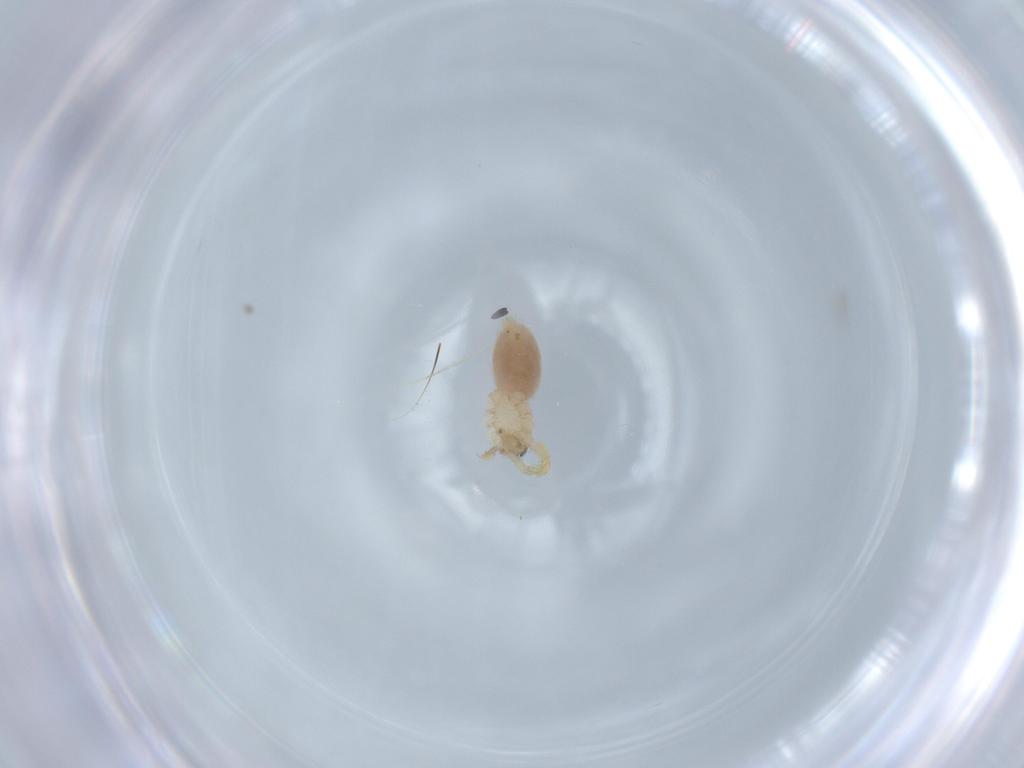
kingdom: Animalia
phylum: Arthropoda
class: Arachnida
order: Araneae
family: Oonopidae
